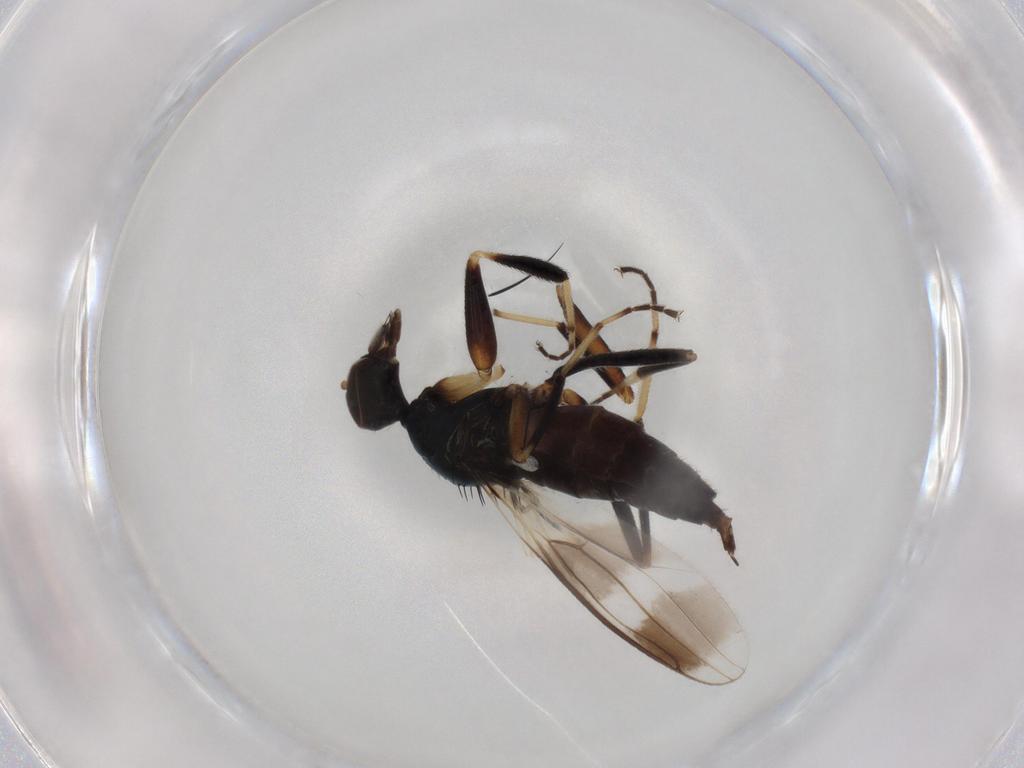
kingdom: Animalia
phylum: Arthropoda
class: Insecta
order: Diptera
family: Hybotidae
